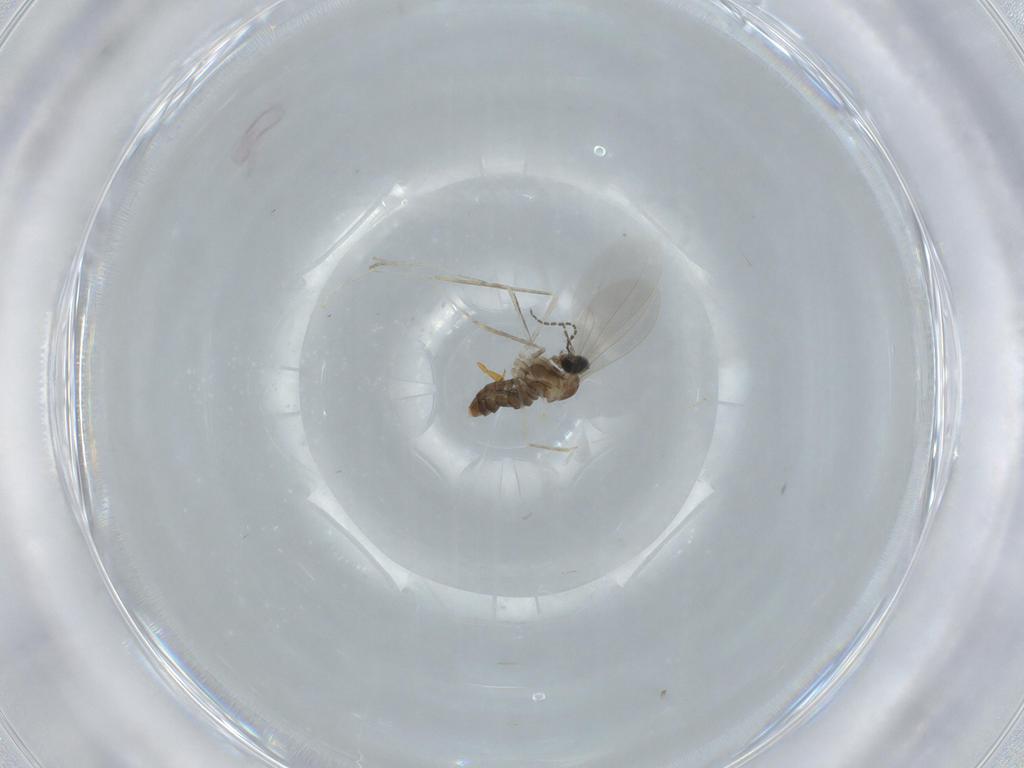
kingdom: Animalia
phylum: Arthropoda
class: Insecta
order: Diptera
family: Cecidomyiidae
